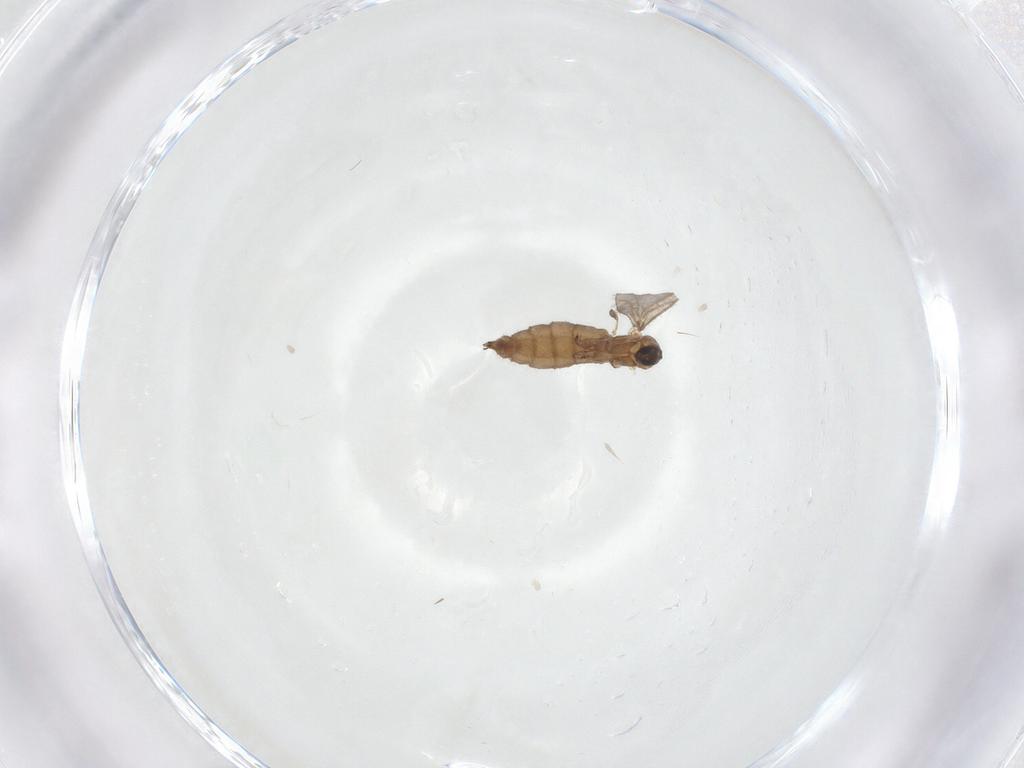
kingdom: Animalia
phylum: Arthropoda
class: Insecta
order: Diptera
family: Sciaridae
